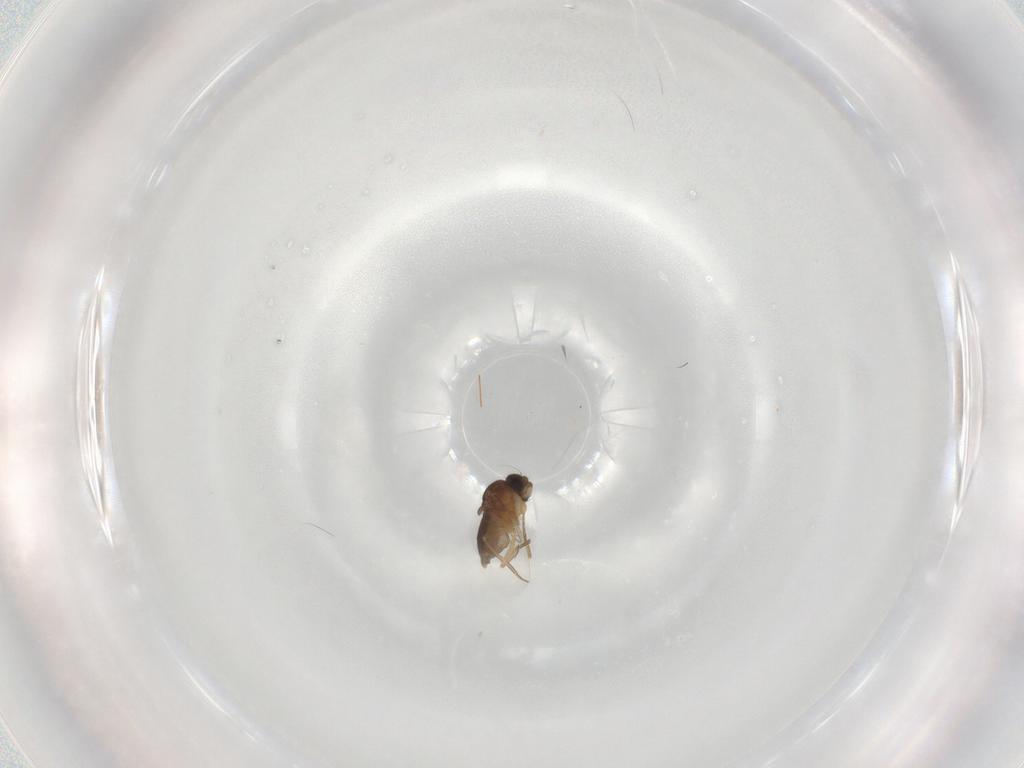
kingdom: Animalia
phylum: Arthropoda
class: Insecta
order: Diptera
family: Phoridae
